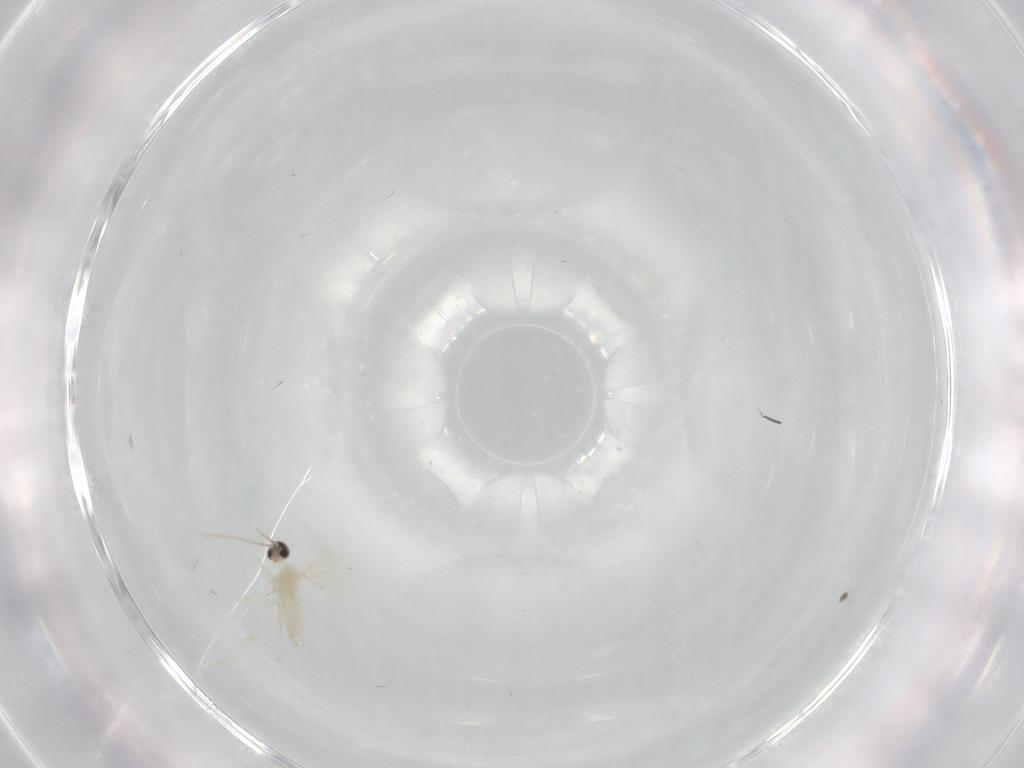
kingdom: Animalia
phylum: Arthropoda
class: Insecta
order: Diptera
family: Cecidomyiidae
